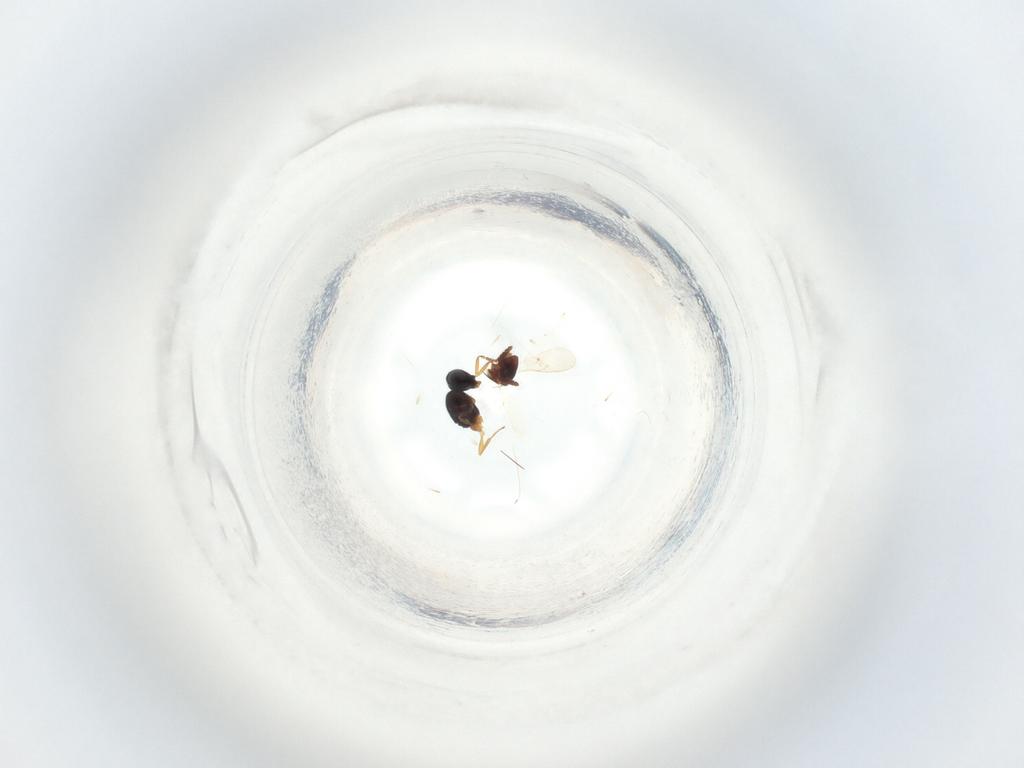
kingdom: Animalia
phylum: Arthropoda
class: Insecta
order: Hymenoptera
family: Scelionidae
